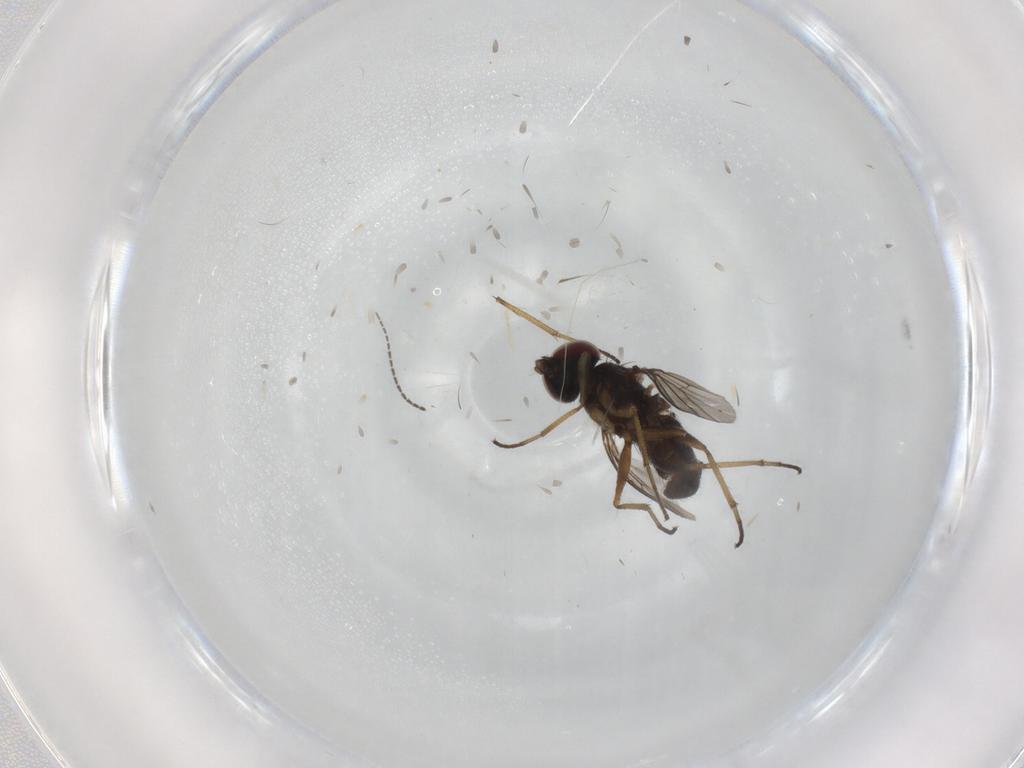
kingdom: Animalia
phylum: Arthropoda
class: Insecta
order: Diptera
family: Dolichopodidae
